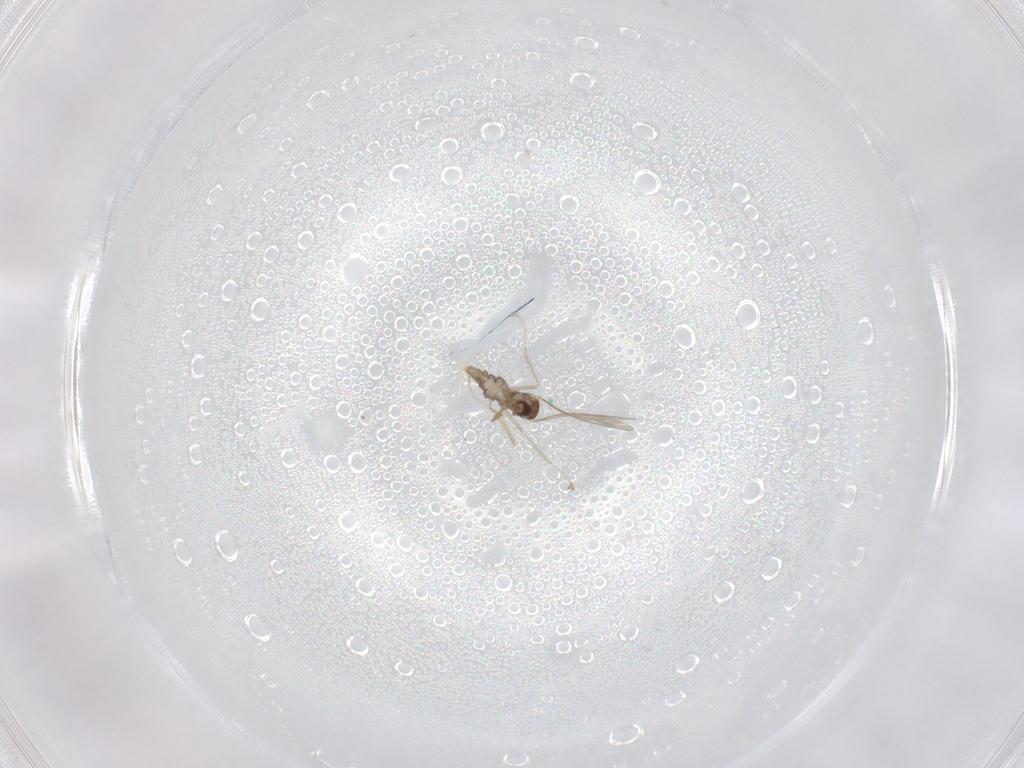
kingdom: Animalia
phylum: Arthropoda
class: Insecta
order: Diptera
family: Cecidomyiidae
